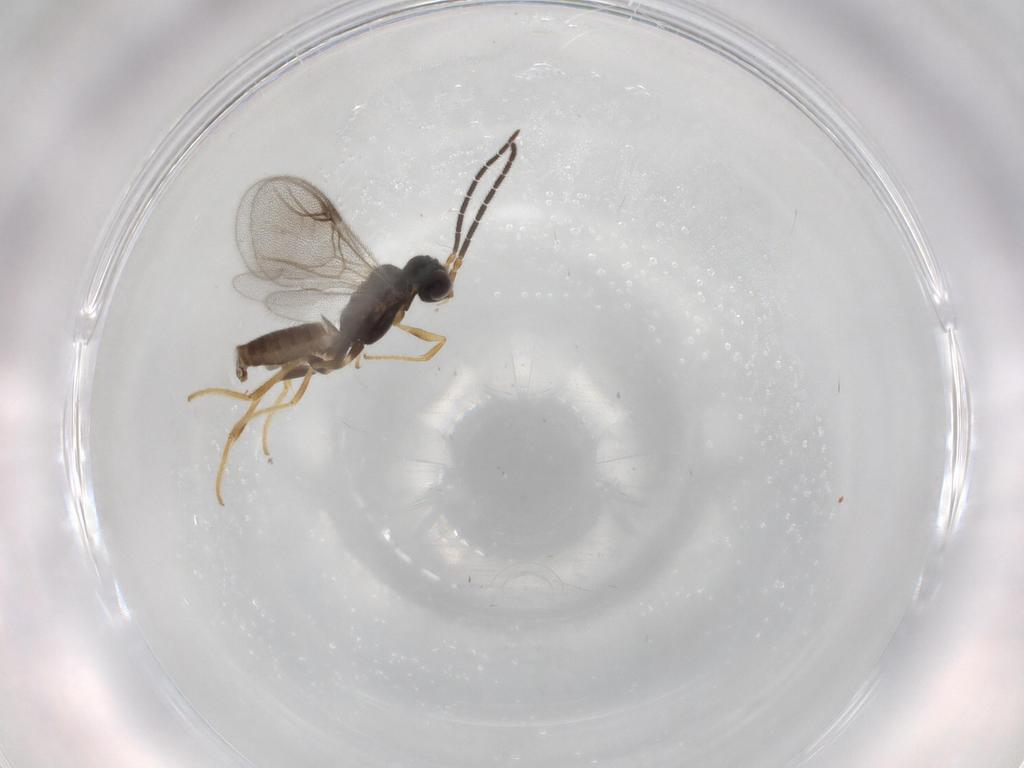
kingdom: Animalia
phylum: Arthropoda
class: Insecta
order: Hymenoptera
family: Dryinidae
